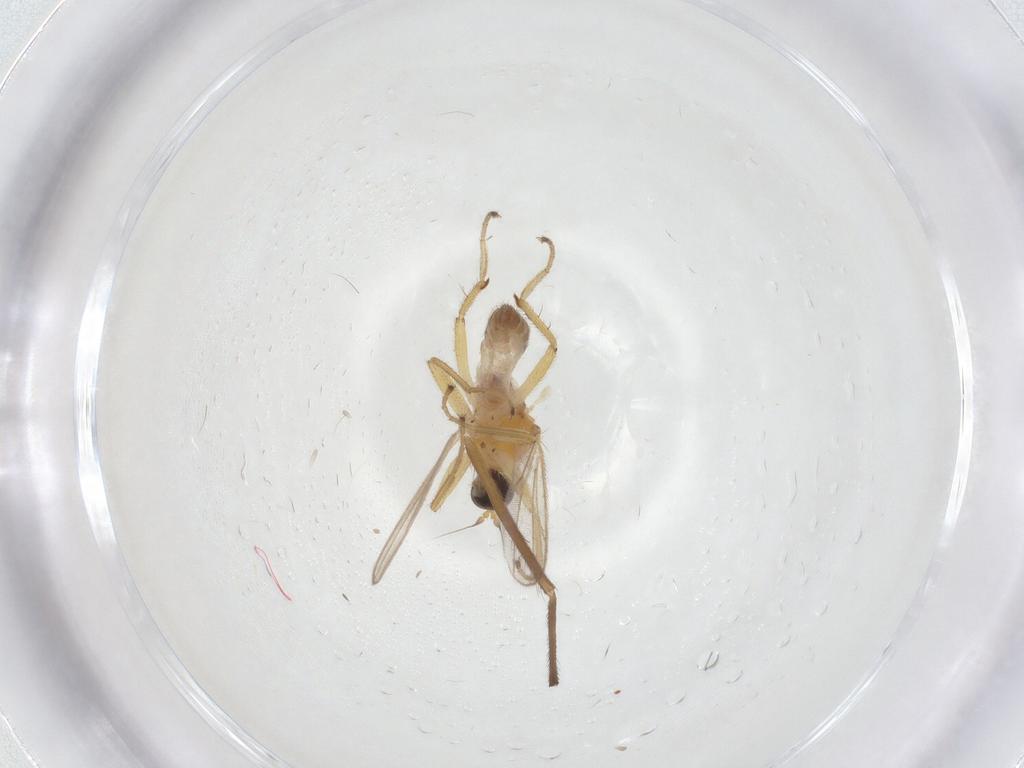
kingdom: Animalia
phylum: Arthropoda
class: Insecta
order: Diptera
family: Hybotidae
